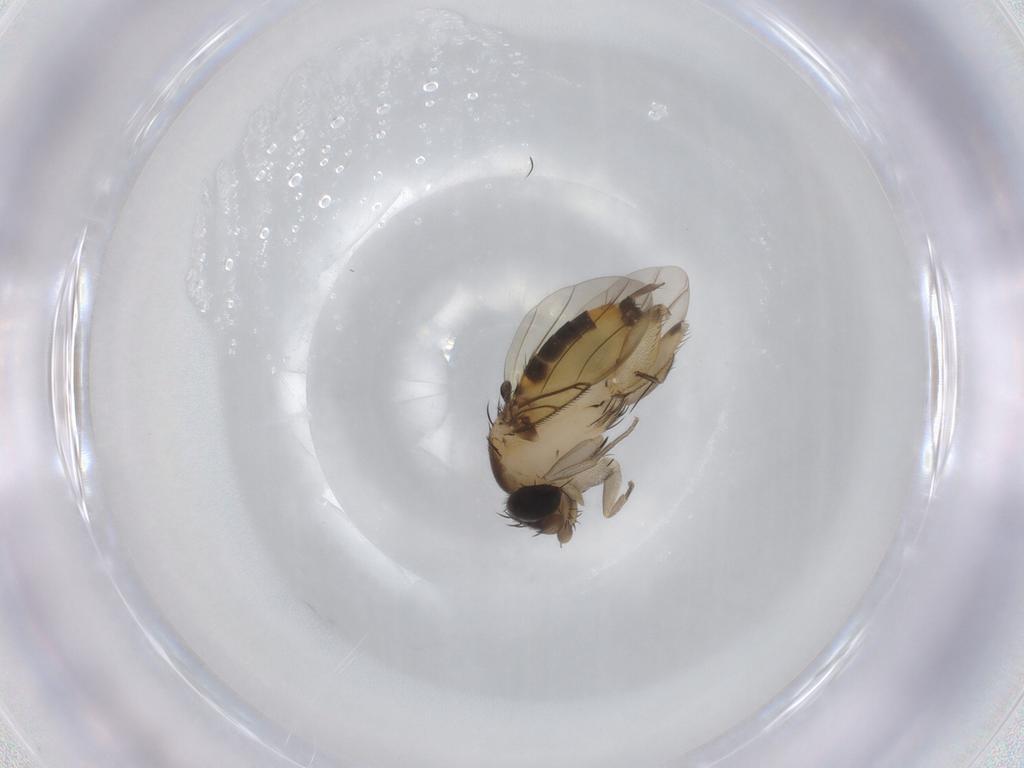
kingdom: Animalia
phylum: Arthropoda
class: Insecta
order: Diptera
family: Phoridae
